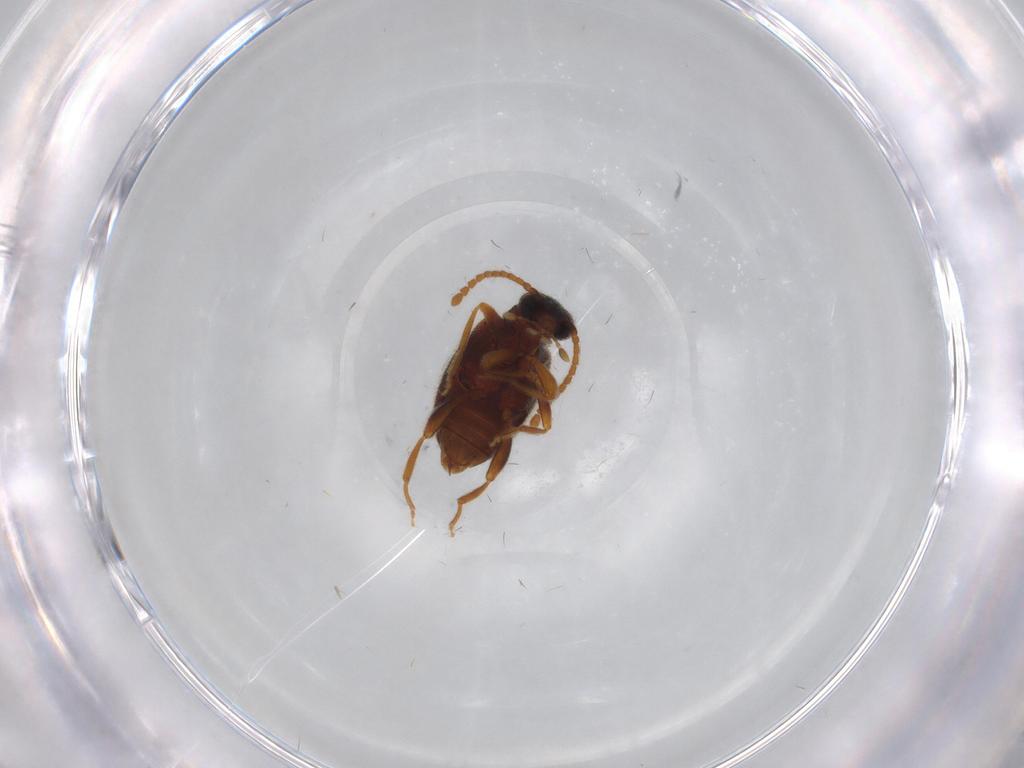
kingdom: Animalia
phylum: Arthropoda
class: Insecta
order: Coleoptera
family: Aderidae
